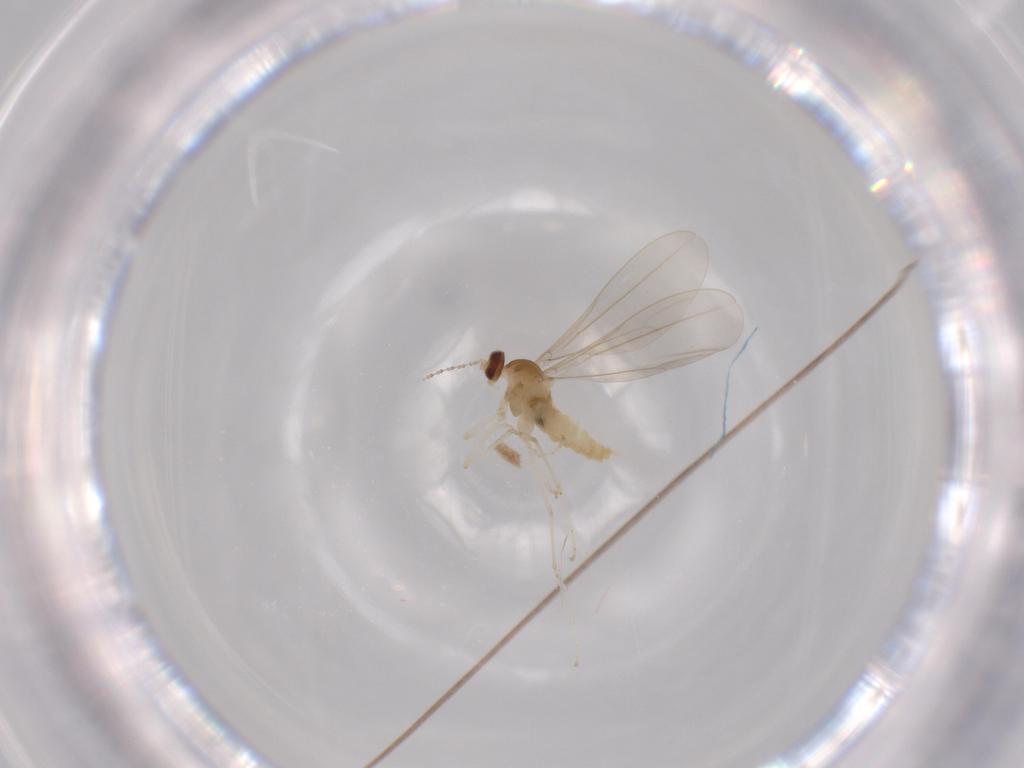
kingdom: Animalia
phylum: Arthropoda
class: Insecta
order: Diptera
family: Cecidomyiidae
